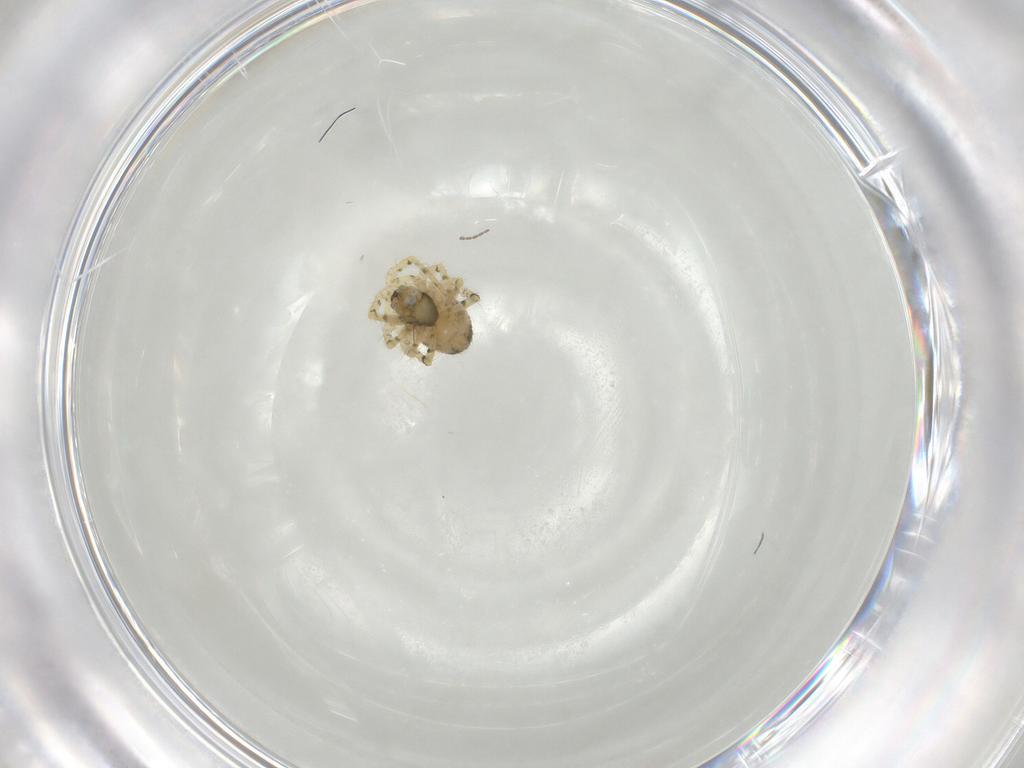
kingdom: Animalia
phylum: Arthropoda
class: Arachnida
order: Araneae
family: Theridiidae
